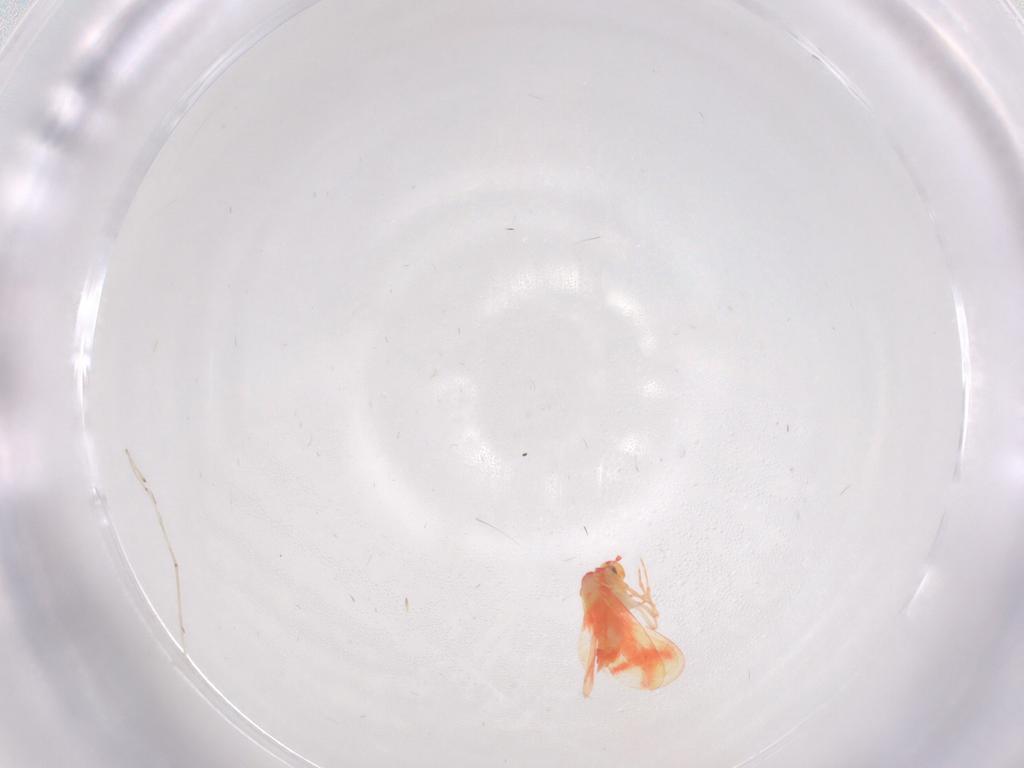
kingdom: Animalia
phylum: Arthropoda
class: Insecta
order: Hemiptera
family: Aleyrodidae
